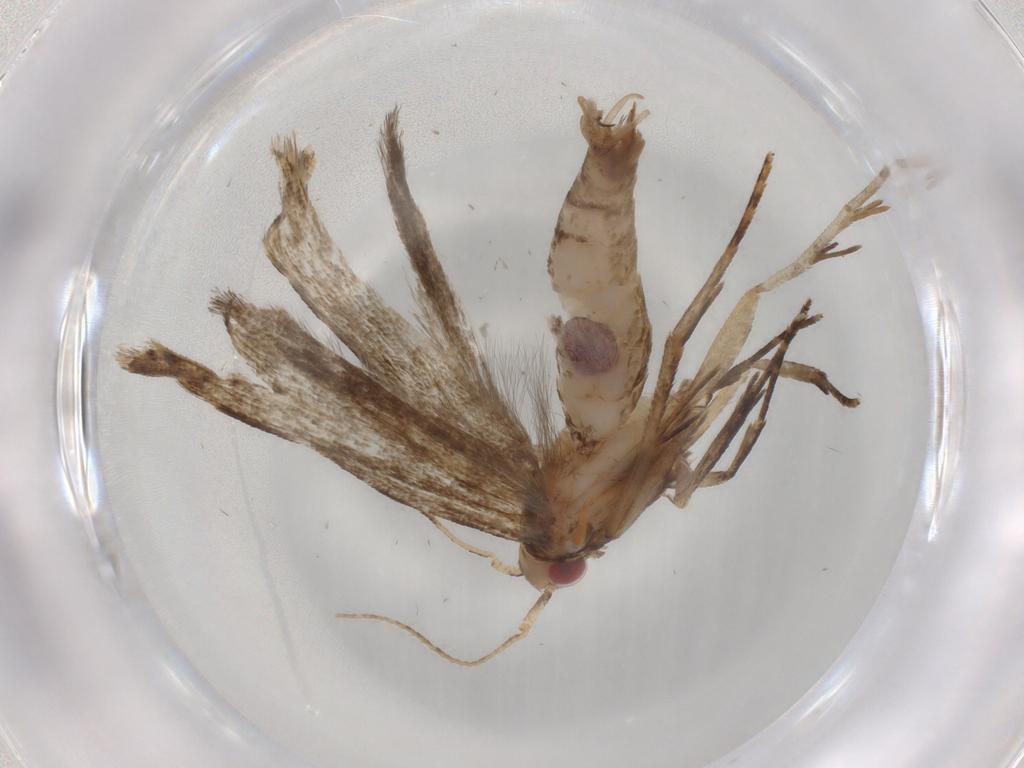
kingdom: Animalia
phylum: Arthropoda
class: Insecta
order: Lepidoptera
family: Gelechiidae
